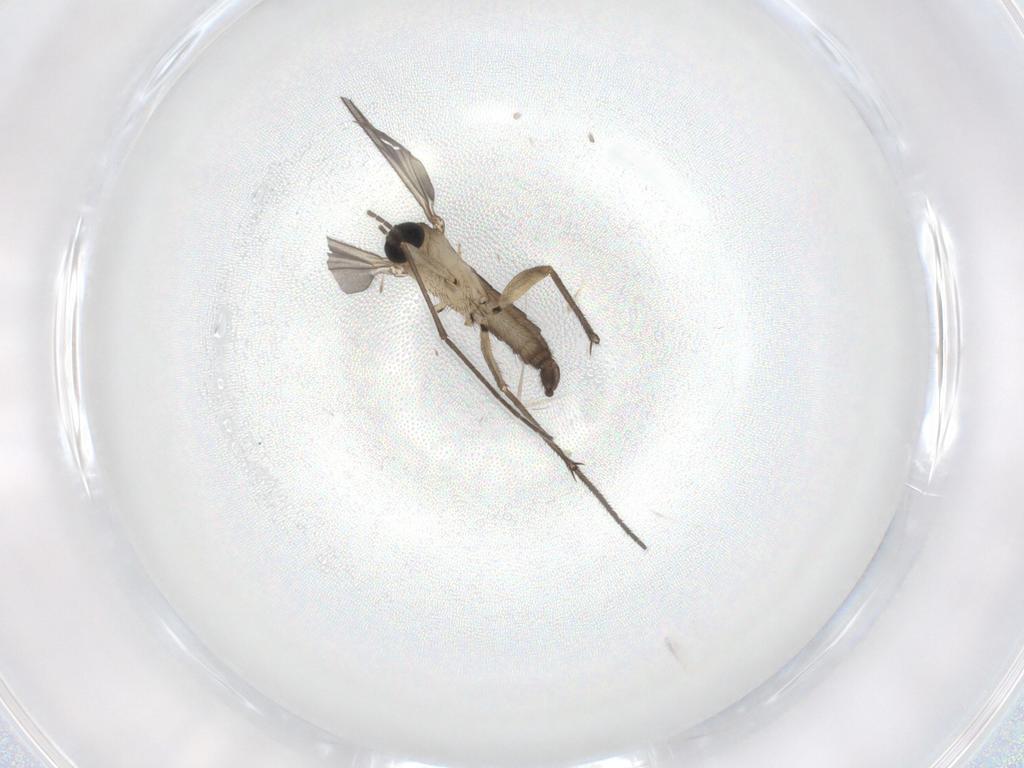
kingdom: Animalia
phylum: Arthropoda
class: Insecta
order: Diptera
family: Sciaridae
